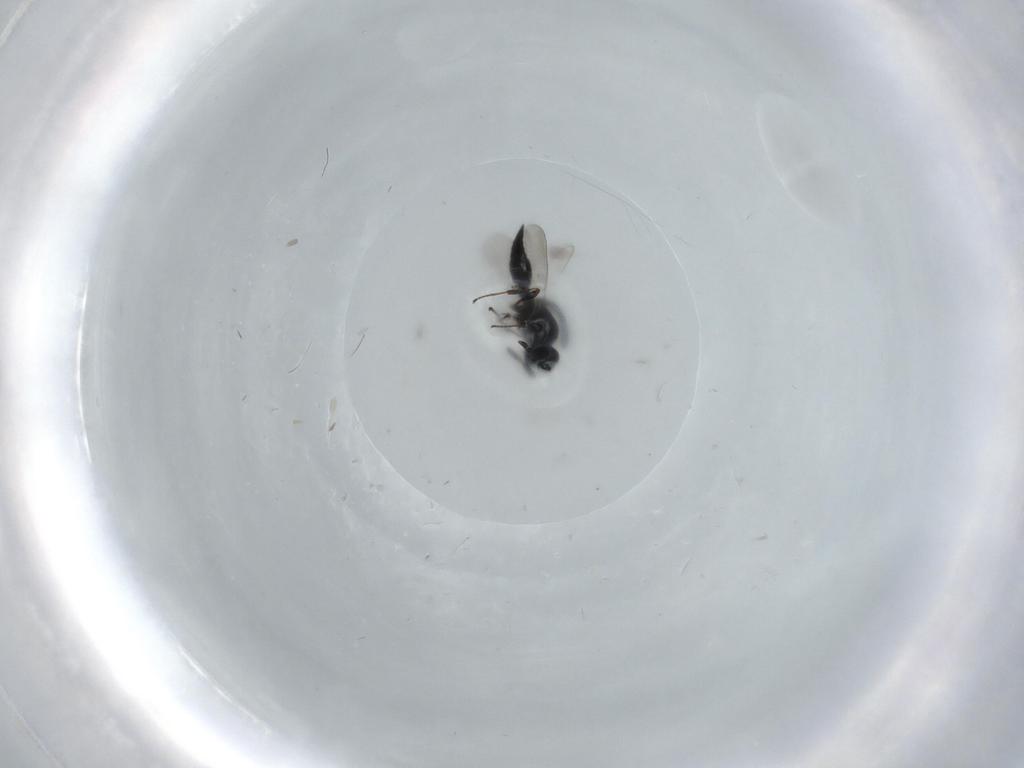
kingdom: Animalia
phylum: Arthropoda
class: Insecta
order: Hymenoptera
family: Platygastridae
